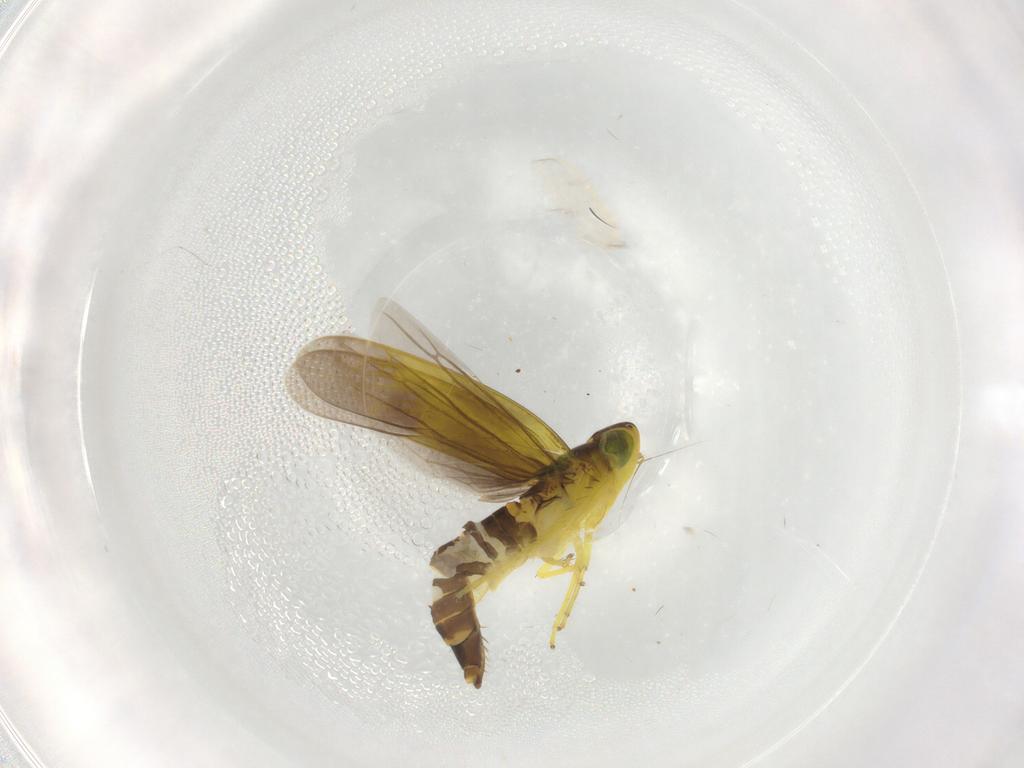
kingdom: Animalia
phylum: Arthropoda
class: Insecta
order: Hemiptera
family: Cicadellidae
